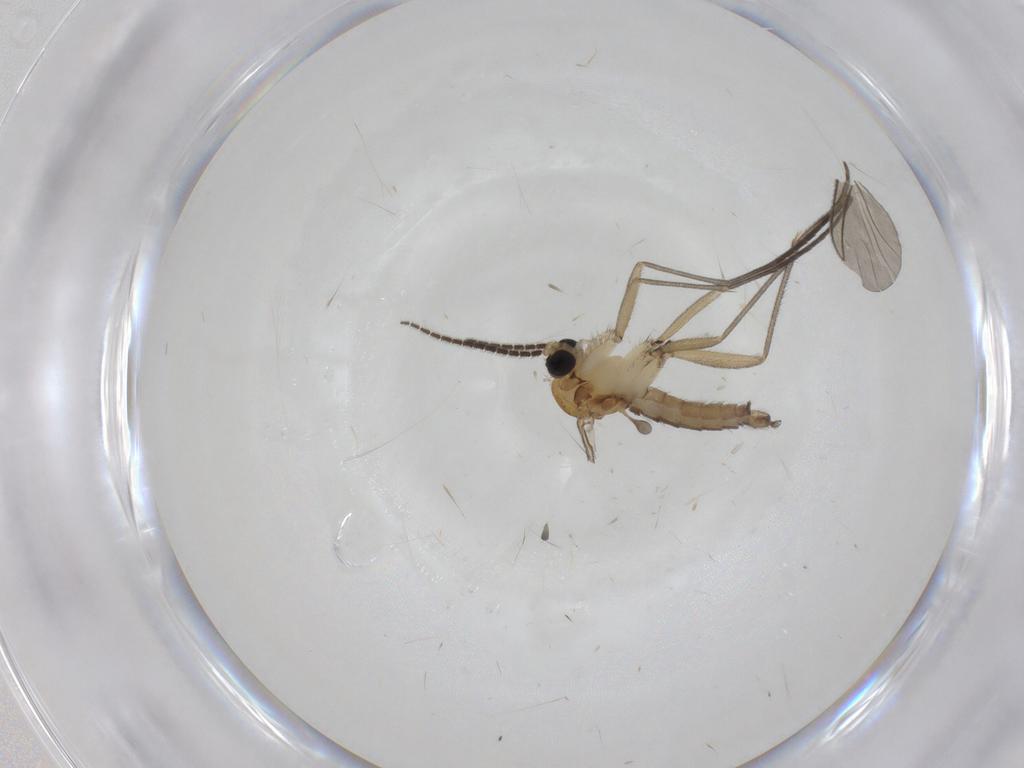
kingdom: Animalia
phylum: Arthropoda
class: Insecta
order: Diptera
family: Sciaridae
